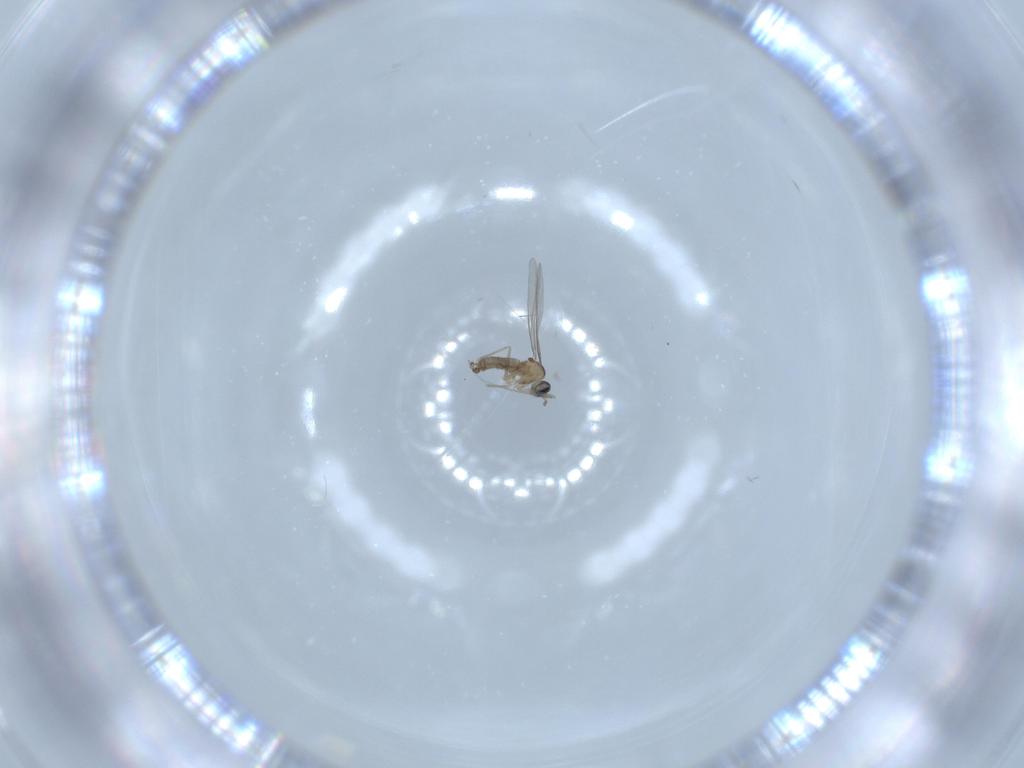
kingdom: Animalia
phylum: Arthropoda
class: Insecta
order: Diptera
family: Cecidomyiidae
